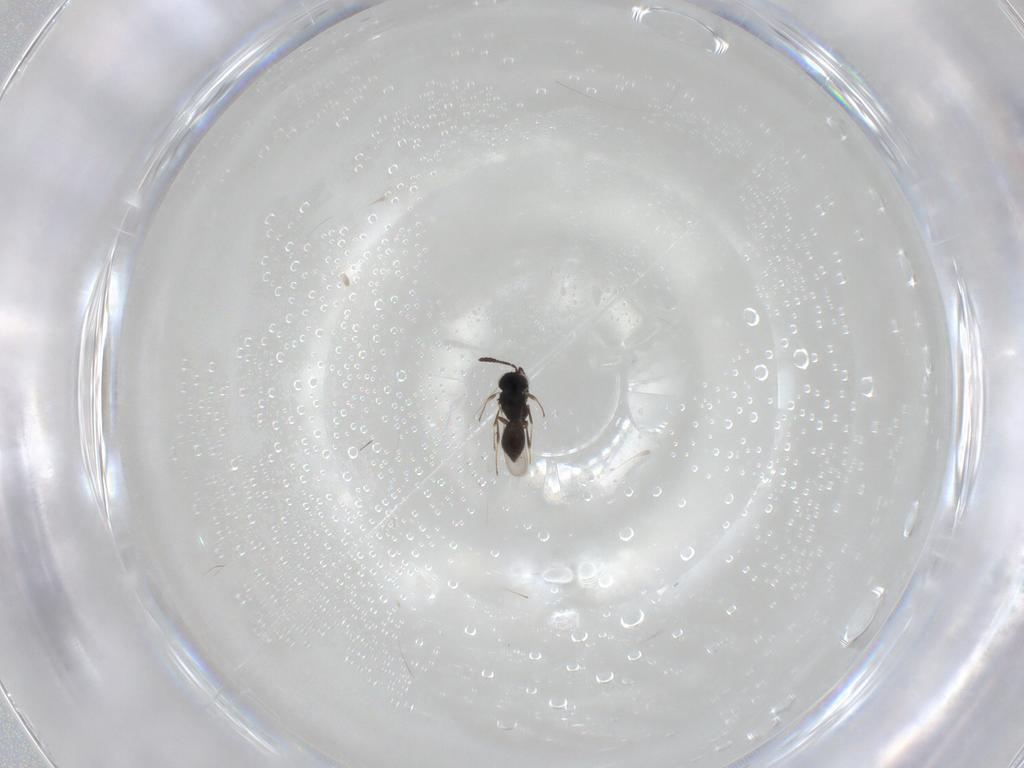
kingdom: Animalia
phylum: Arthropoda
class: Insecta
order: Hymenoptera
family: Scelionidae
